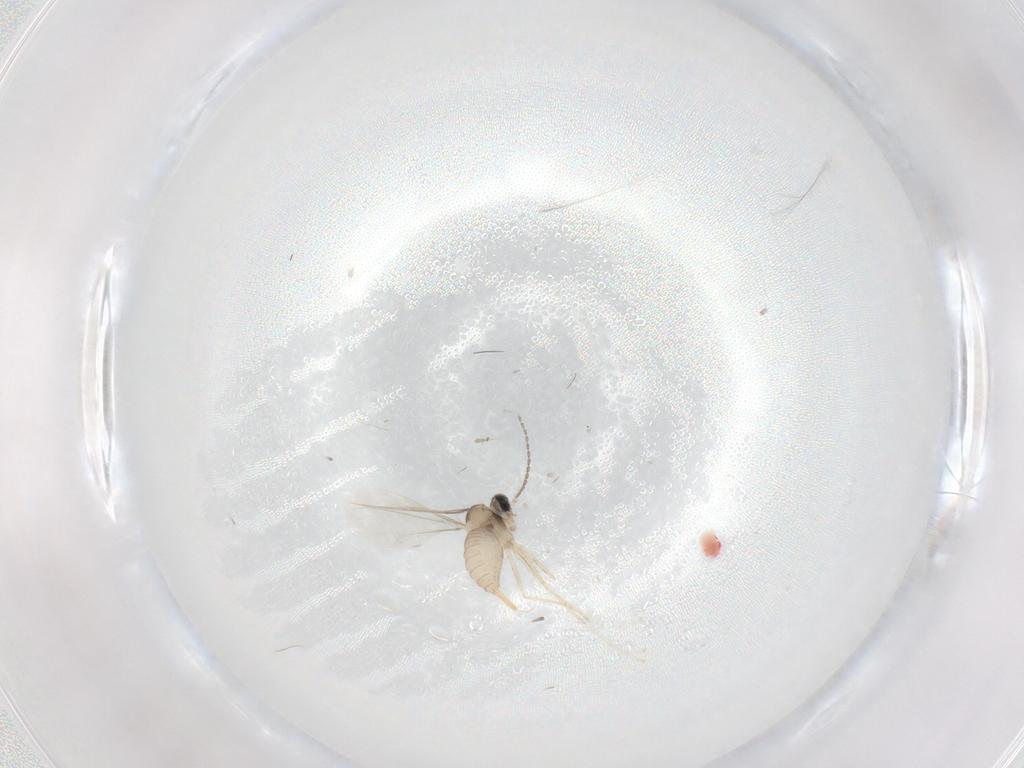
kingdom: Animalia
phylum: Arthropoda
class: Insecta
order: Diptera
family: Cecidomyiidae
